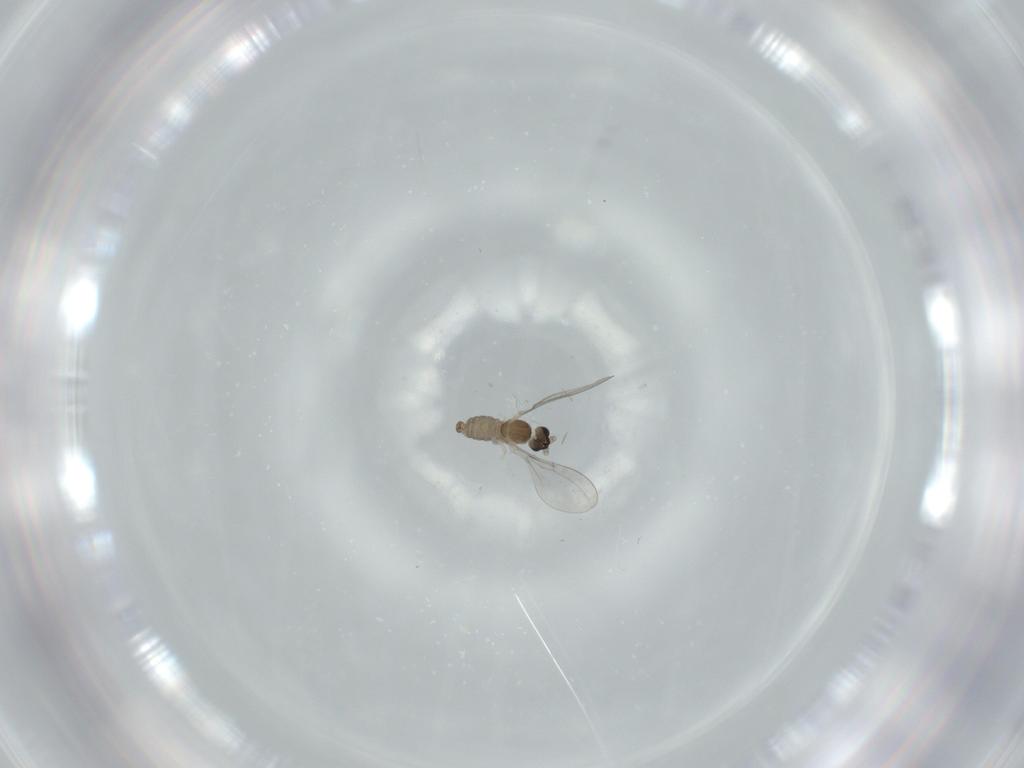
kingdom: Animalia
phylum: Arthropoda
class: Insecta
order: Diptera
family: Cecidomyiidae
